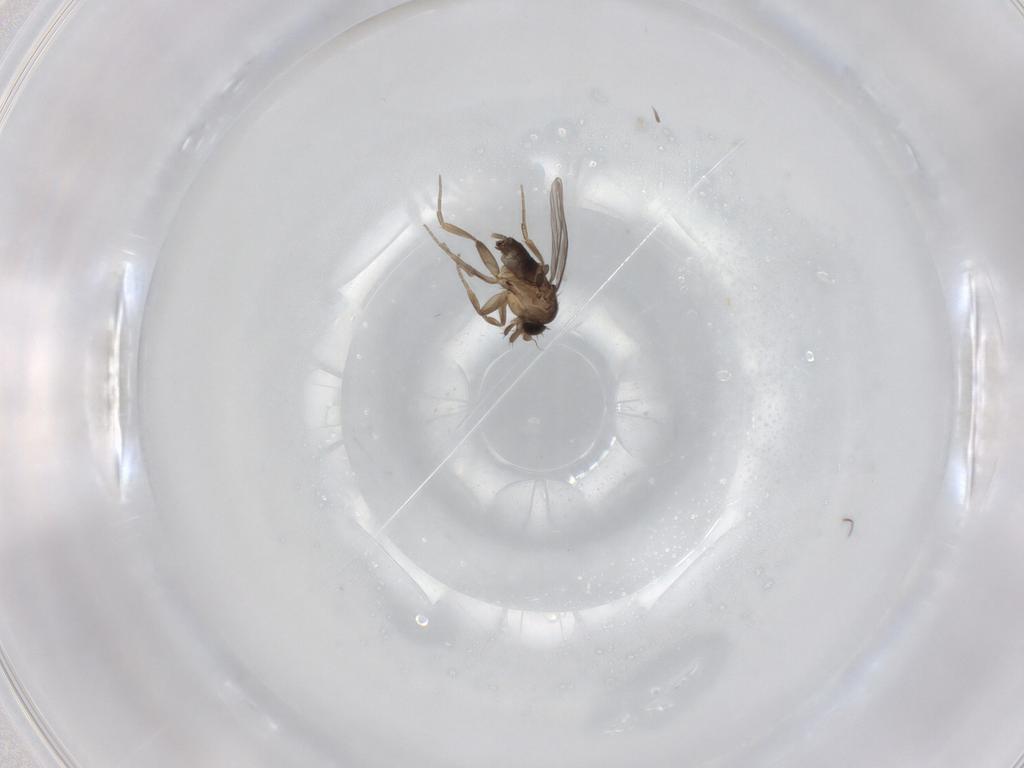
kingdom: Animalia
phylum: Arthropoda
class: Insecta
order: Diptera
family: Phoridae
